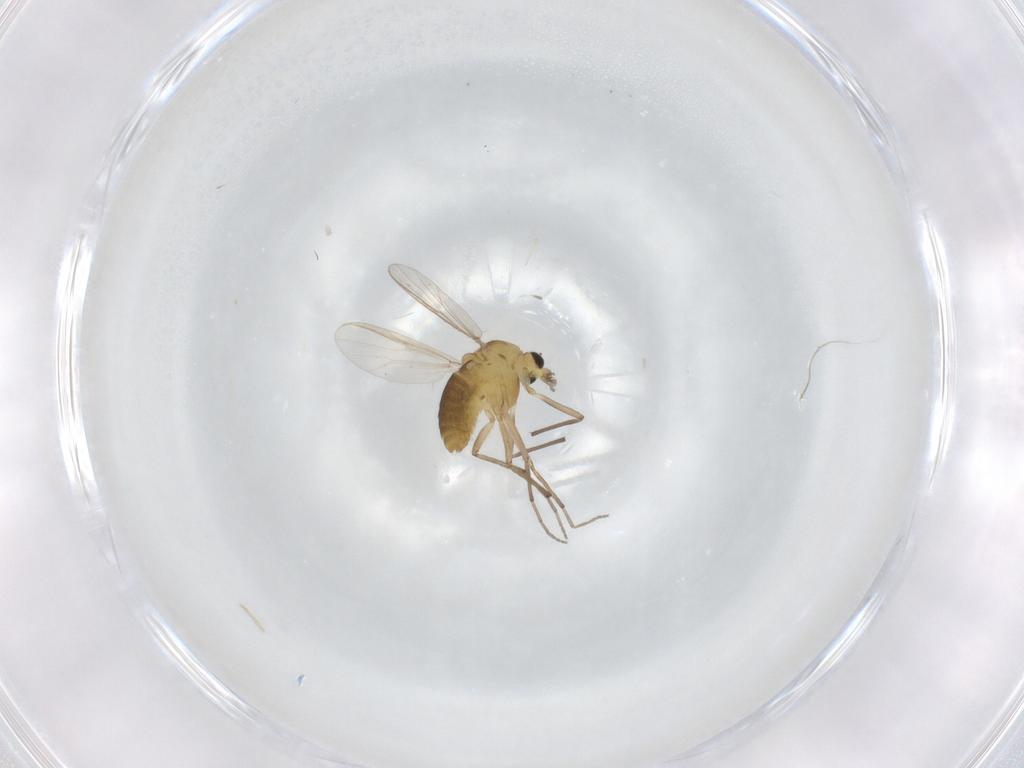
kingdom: Animalia
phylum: Arthropoda
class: Insecta
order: Diptera
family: Chironomidae
